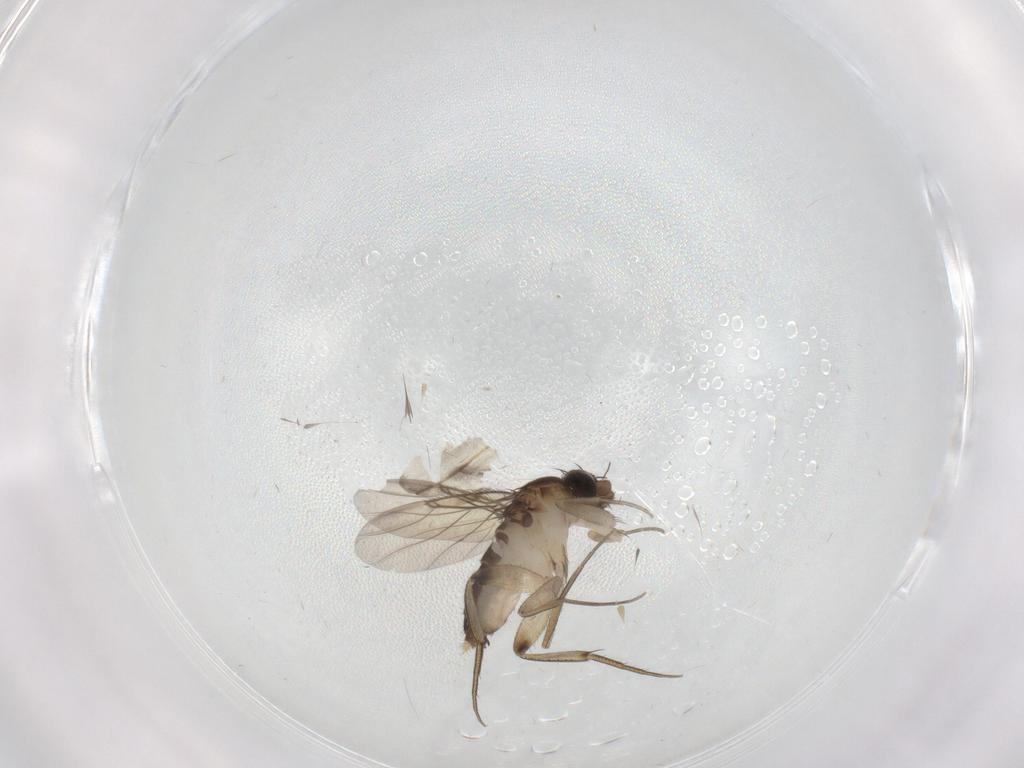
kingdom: Animalia
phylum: Arthropoda
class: Insecta
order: Diptera
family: Phoridae
